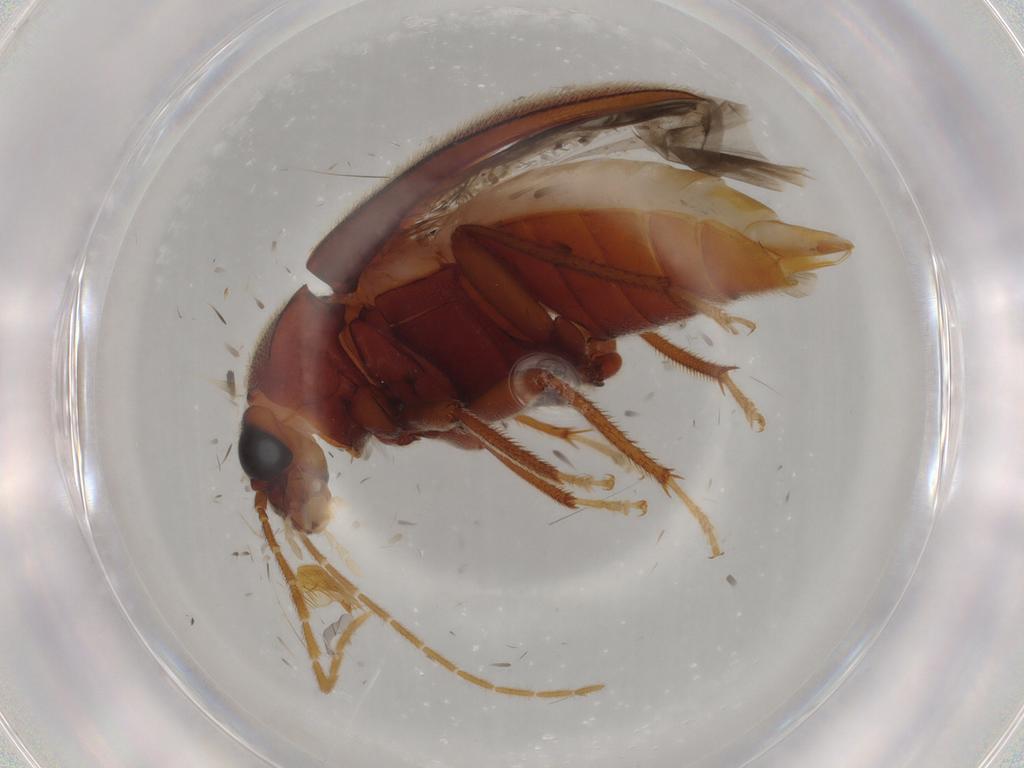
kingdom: Animalia
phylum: Arthropoda
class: Insecta
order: Coleoptera
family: Ptilodactylidae
